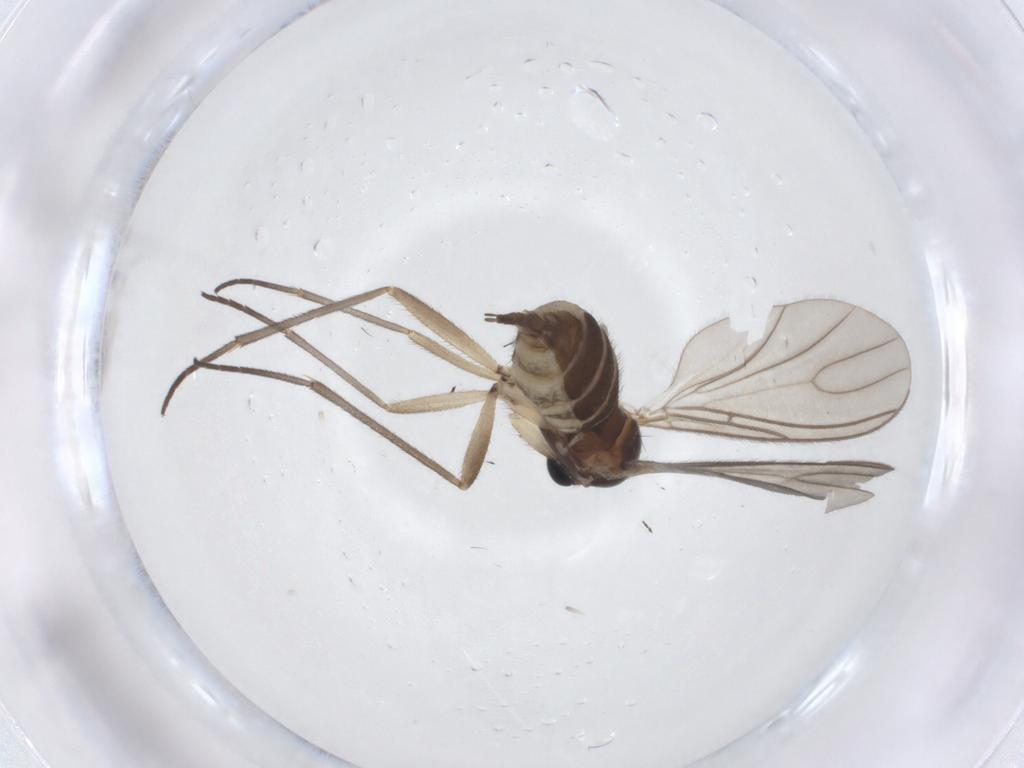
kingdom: Animalia
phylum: Arthropoda
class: Insecta
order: Diptera
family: Sciaridae
